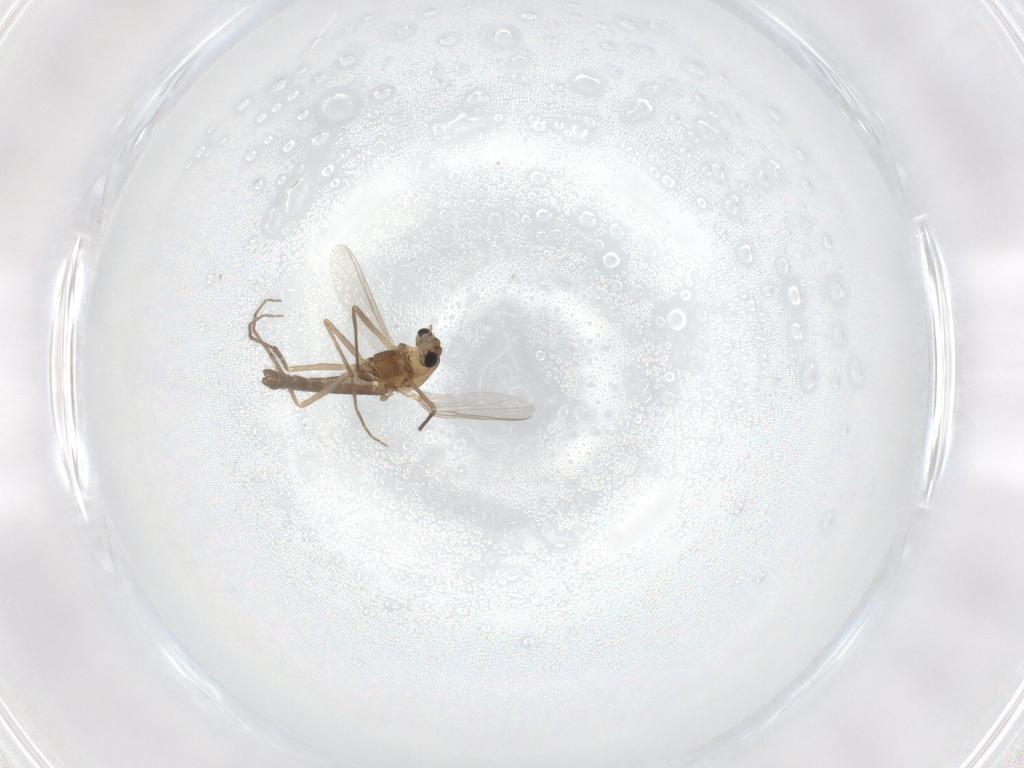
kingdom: Animalia
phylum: Arthropoda
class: Insecta
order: Diptera
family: Chironomidae
